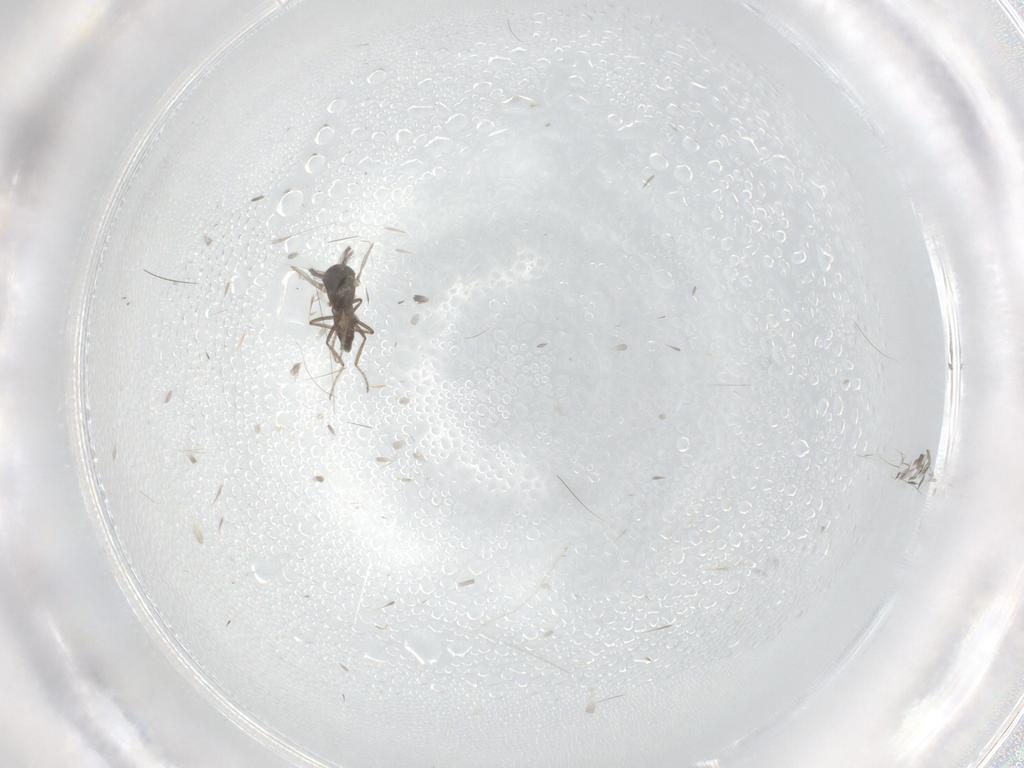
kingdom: Animalia
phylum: Arthropoda
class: Insecta
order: Diptera
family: Ceratopogonidae
